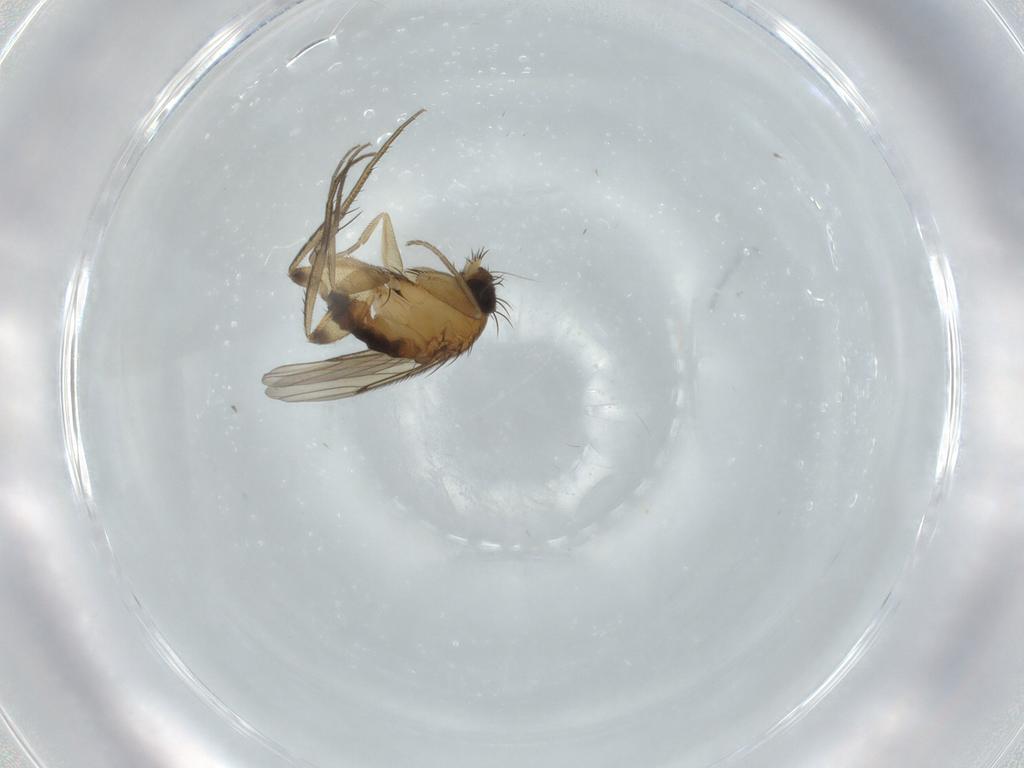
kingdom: Animalia
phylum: Arthropoda
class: Insecta
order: Diptera
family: Phoridae
